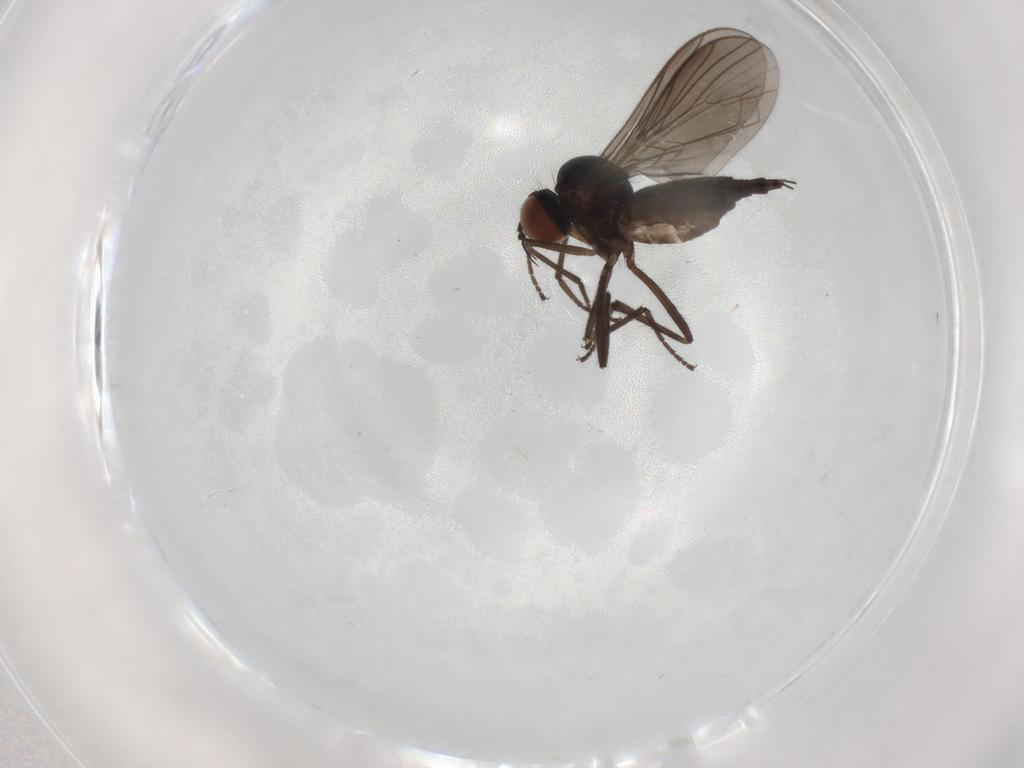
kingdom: Animalia
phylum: Arthropoda
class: Insecta
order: Diptera
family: Empididae
